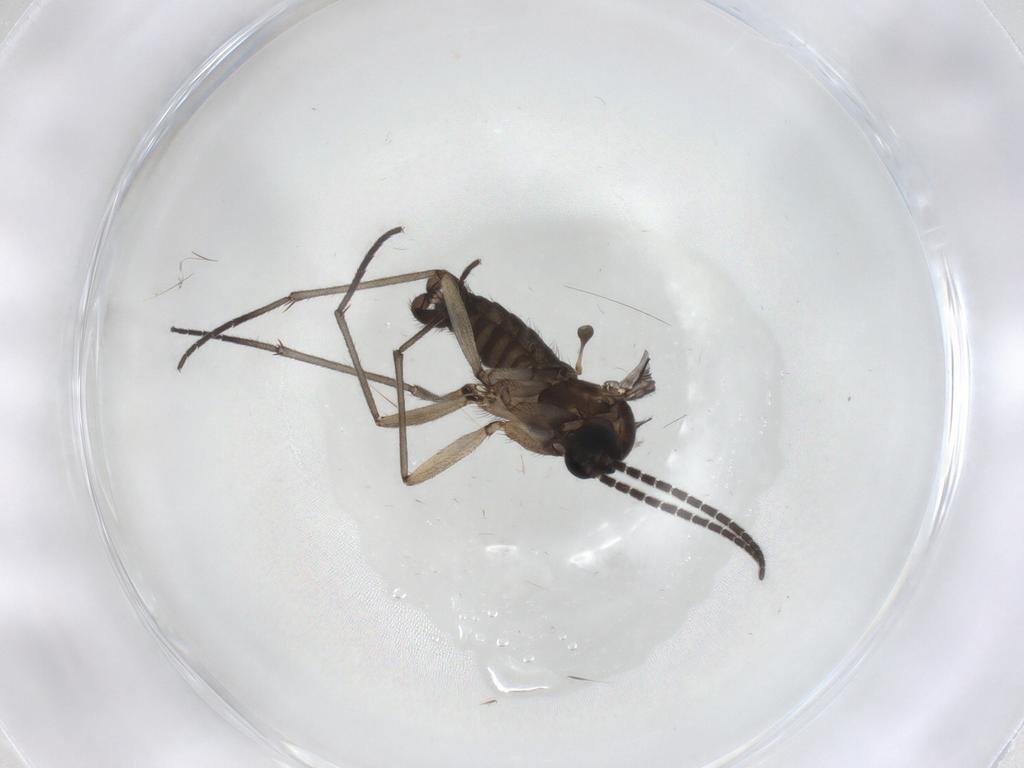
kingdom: Animalia
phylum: Arthropoda
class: Insecta
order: Diptera
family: Sciaridae
